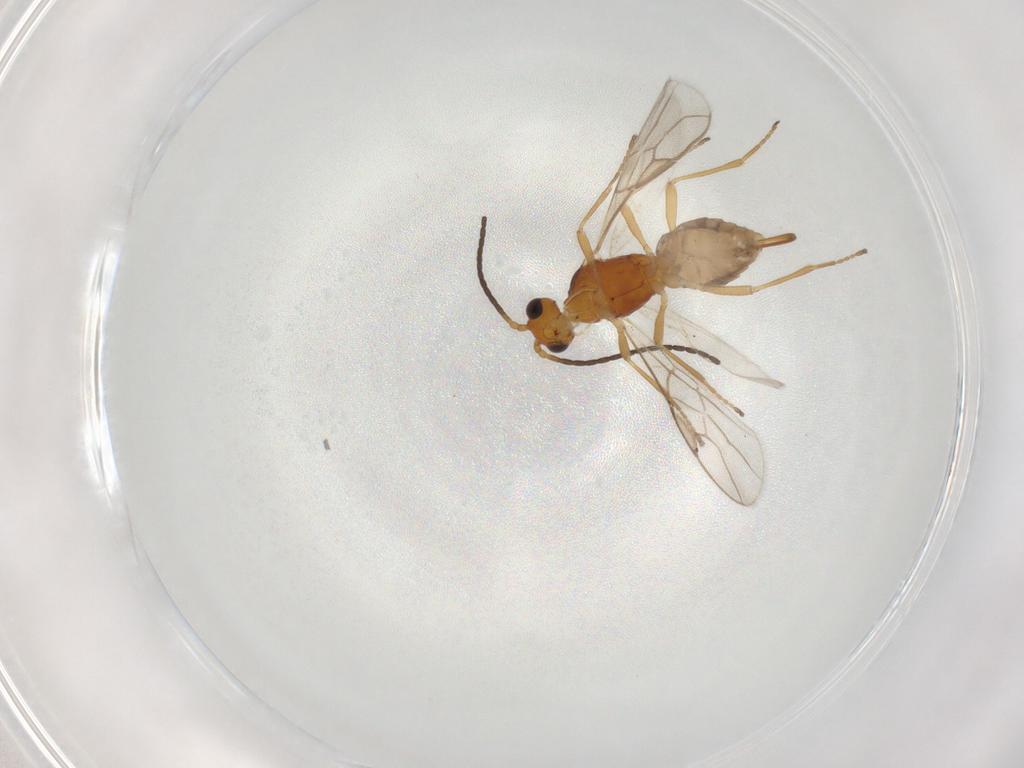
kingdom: Animalia
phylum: Arthropoda
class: Insecta
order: Hymenoptera
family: Braconidae
